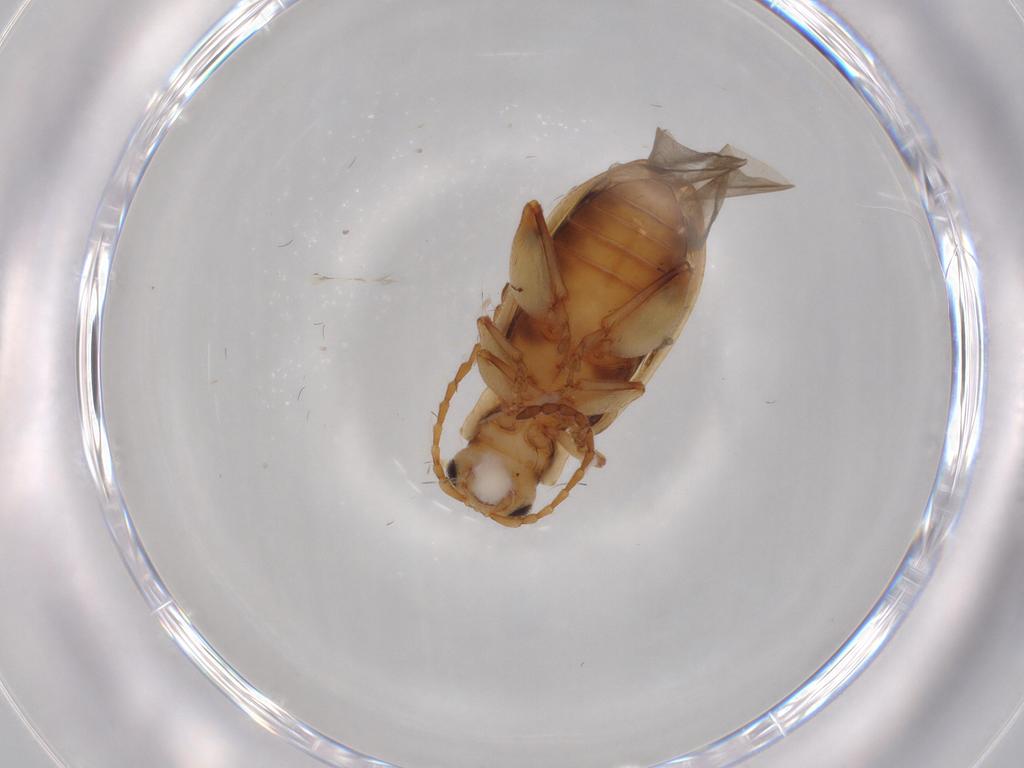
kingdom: Animalia
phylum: Arthropoda
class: Insecta
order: Coleoptera
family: Chrysomelidae
